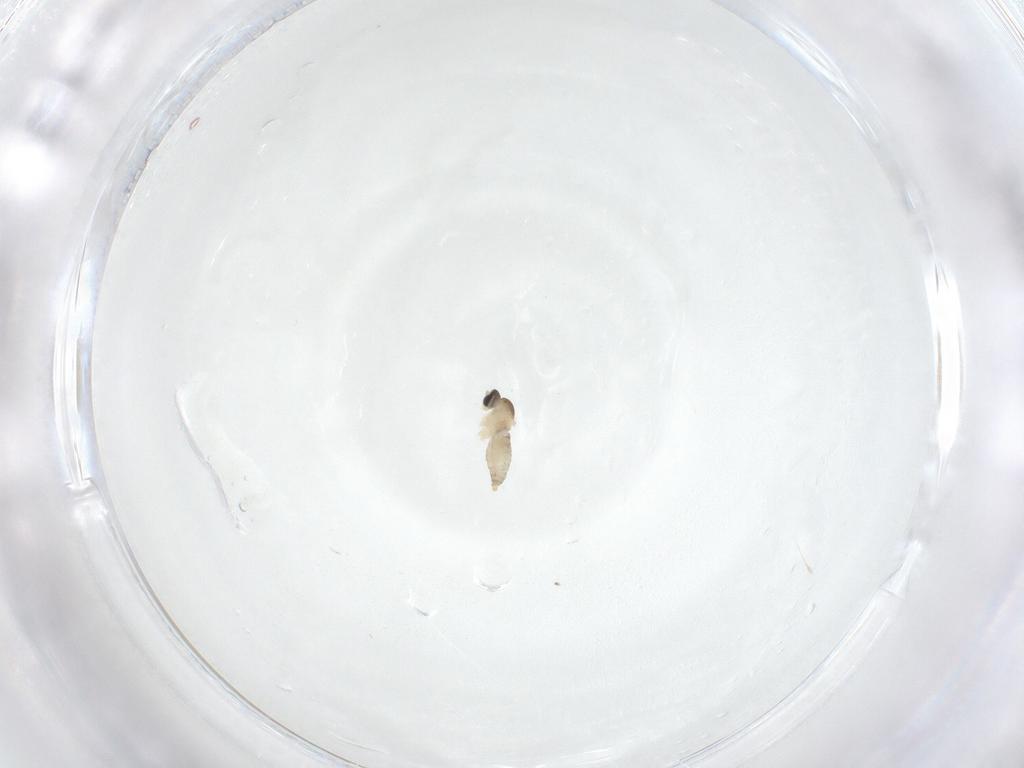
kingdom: Animalia
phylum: Arthropoda
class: Insecta
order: Diptera
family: Cecidomyiidae
